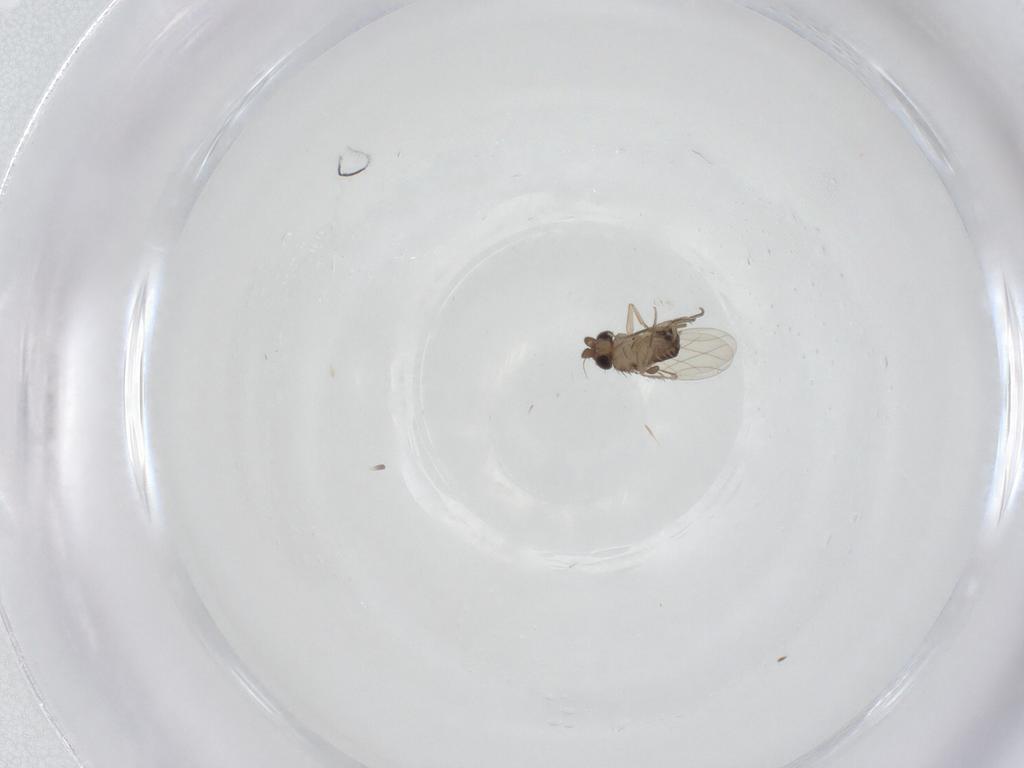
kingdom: Animalia
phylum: Arthropoda
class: Insecta
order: Diptera
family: Phoridae
